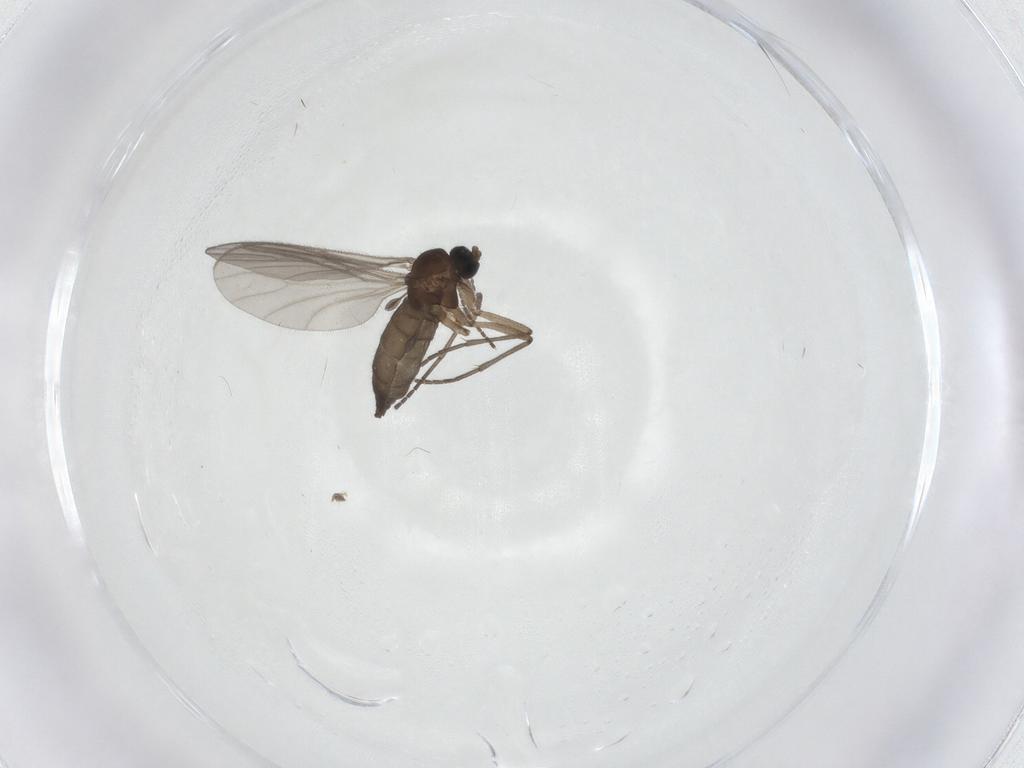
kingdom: Animalia
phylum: Arthropoda
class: Insecta
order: Diptera
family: Sciaridae
